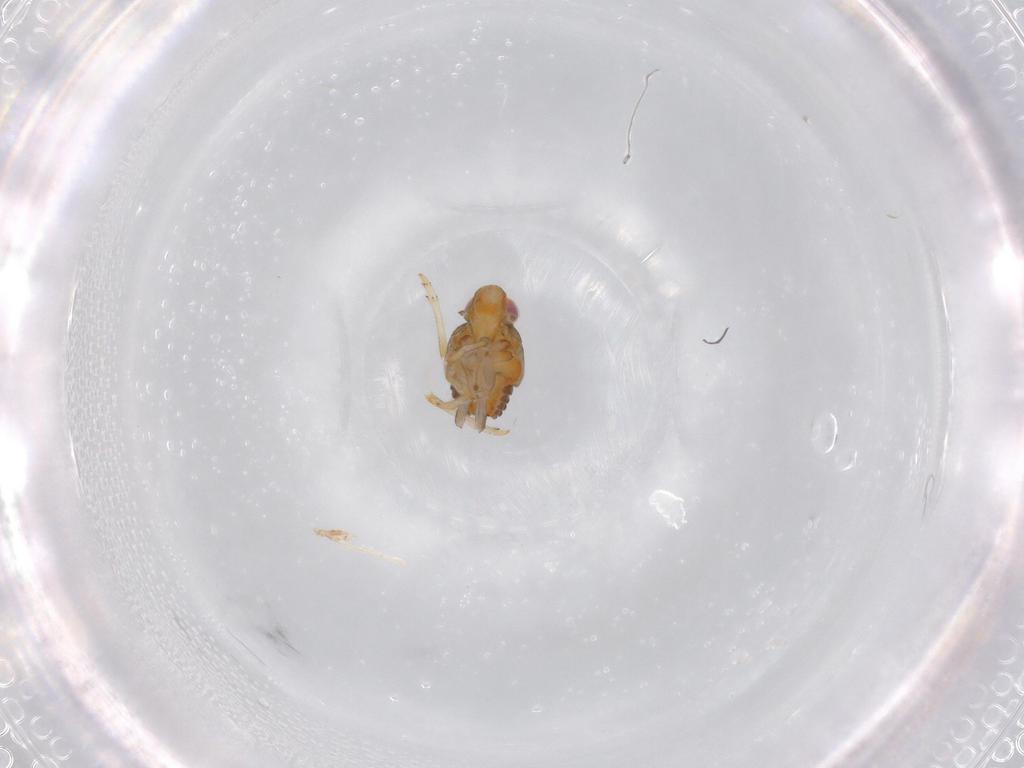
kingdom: Animalia
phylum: Arthropoda
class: Insecta
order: Hemiptera
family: Issidae
